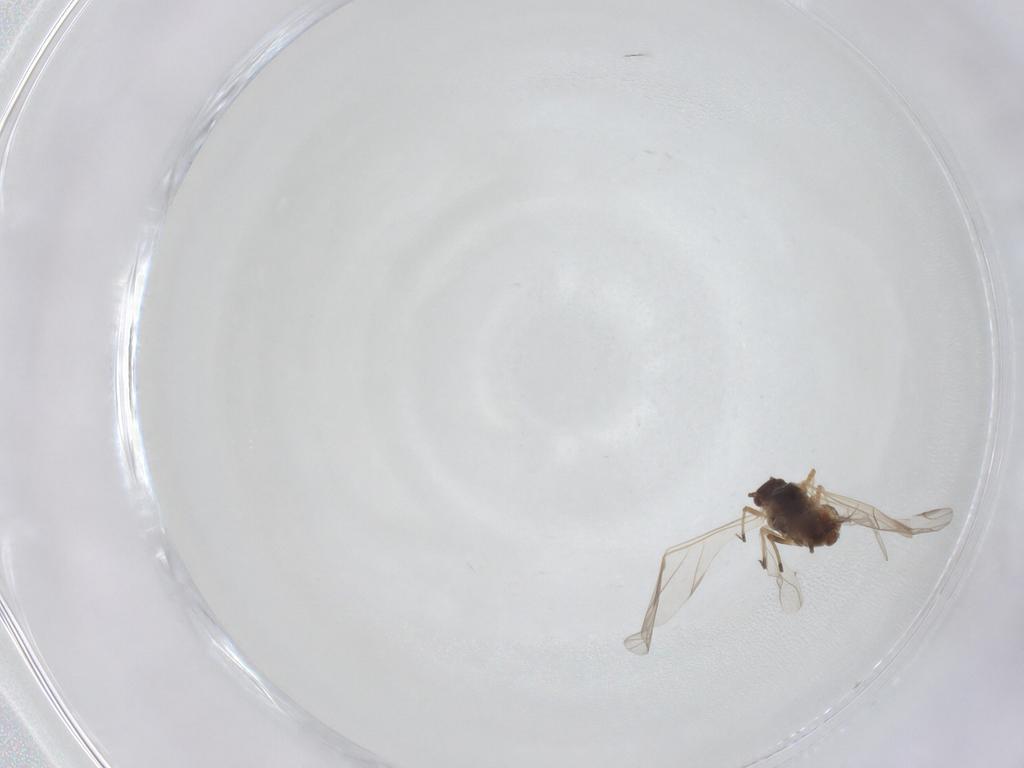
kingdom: Animalia
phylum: Arthropoda
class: Insecta
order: Hemiptera
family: Aphididae
